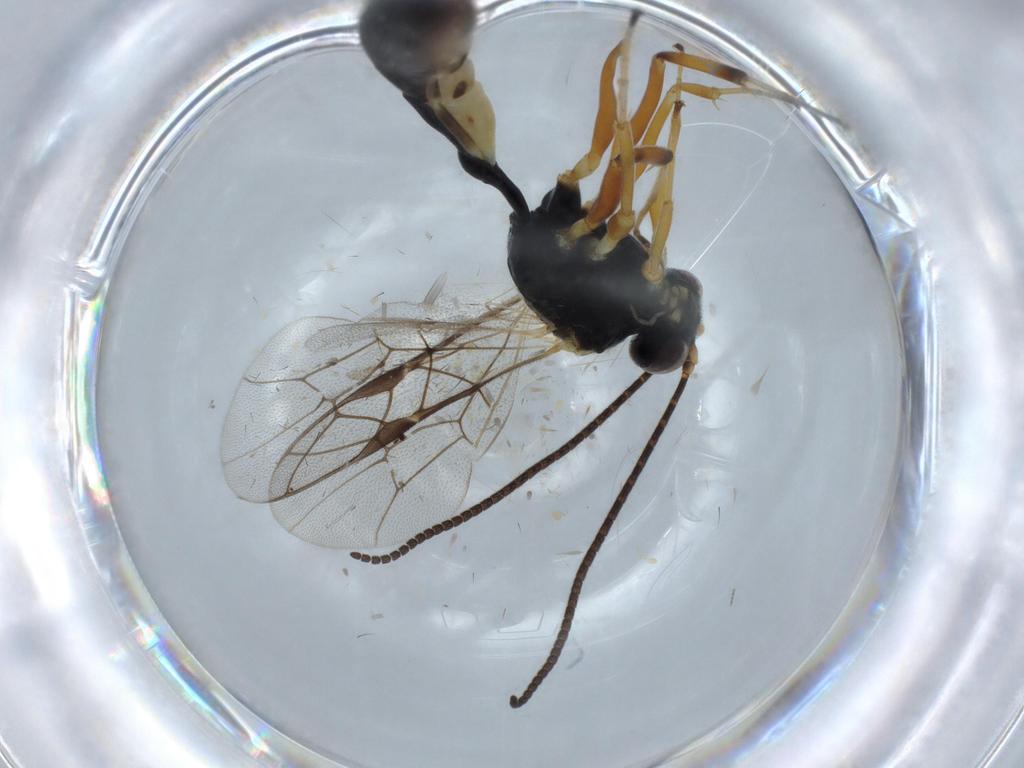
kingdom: Animalia
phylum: Arthropoda
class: Insecta
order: Hymenoptera
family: Ichneumonidae
